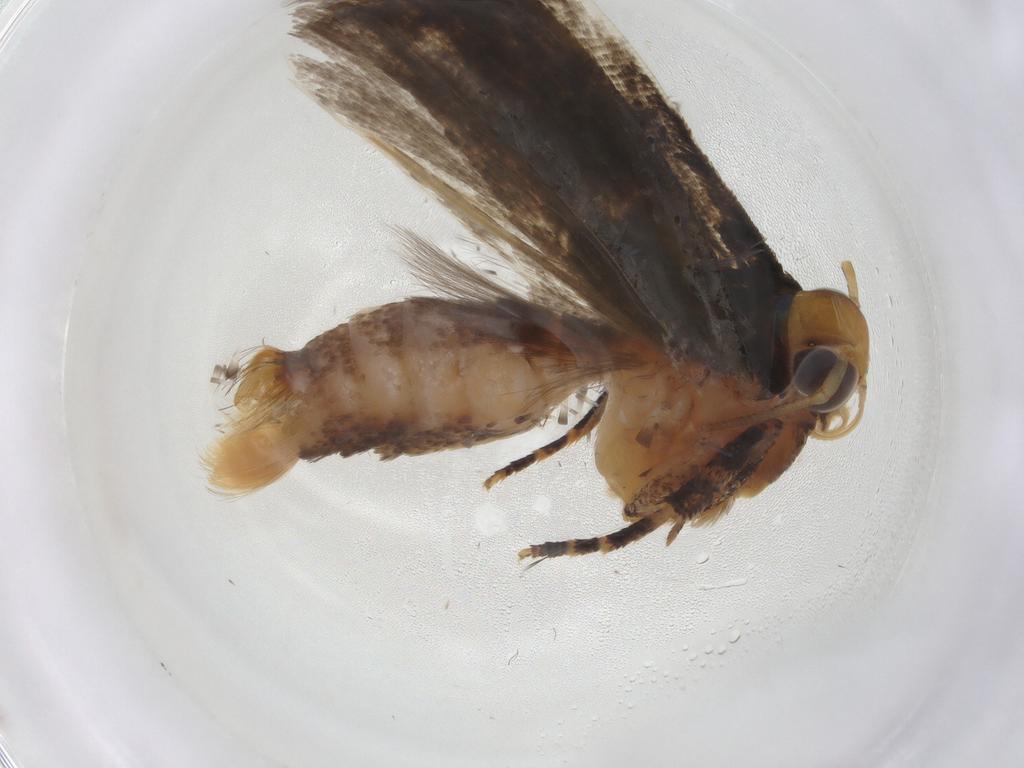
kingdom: Animalia
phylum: Arthropoda
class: Insecta
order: Lepidoptera
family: Gelechiidae
